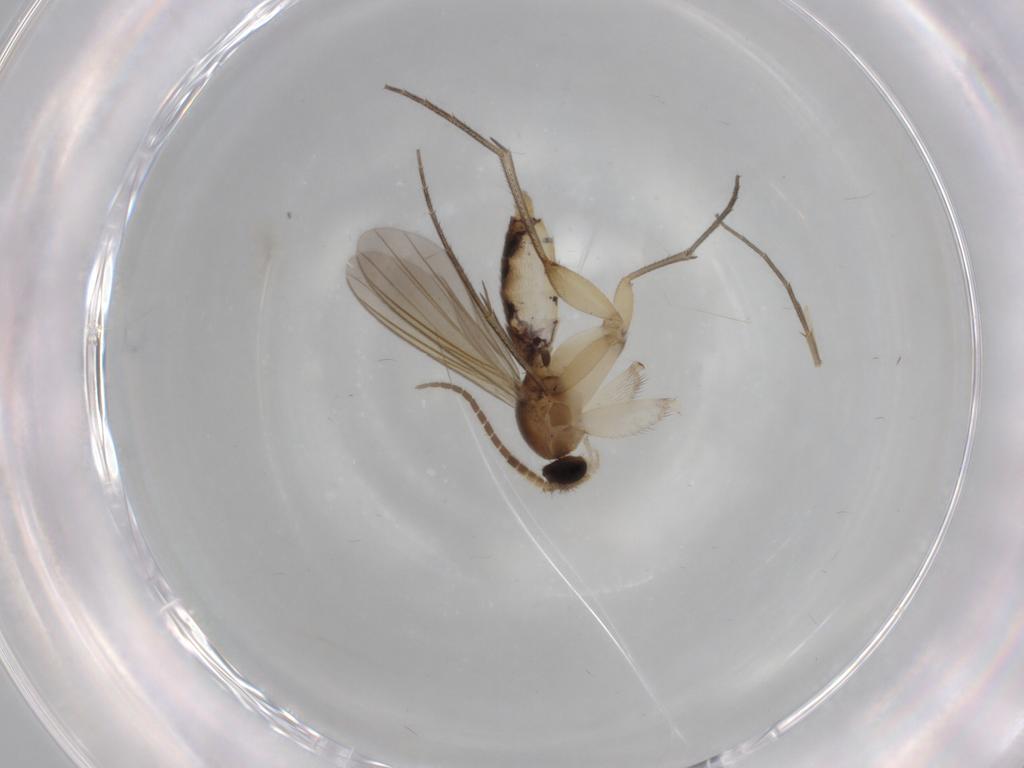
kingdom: Animalia
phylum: Arthropoda
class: Insecta
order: Diptera
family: Mycetophilidae
